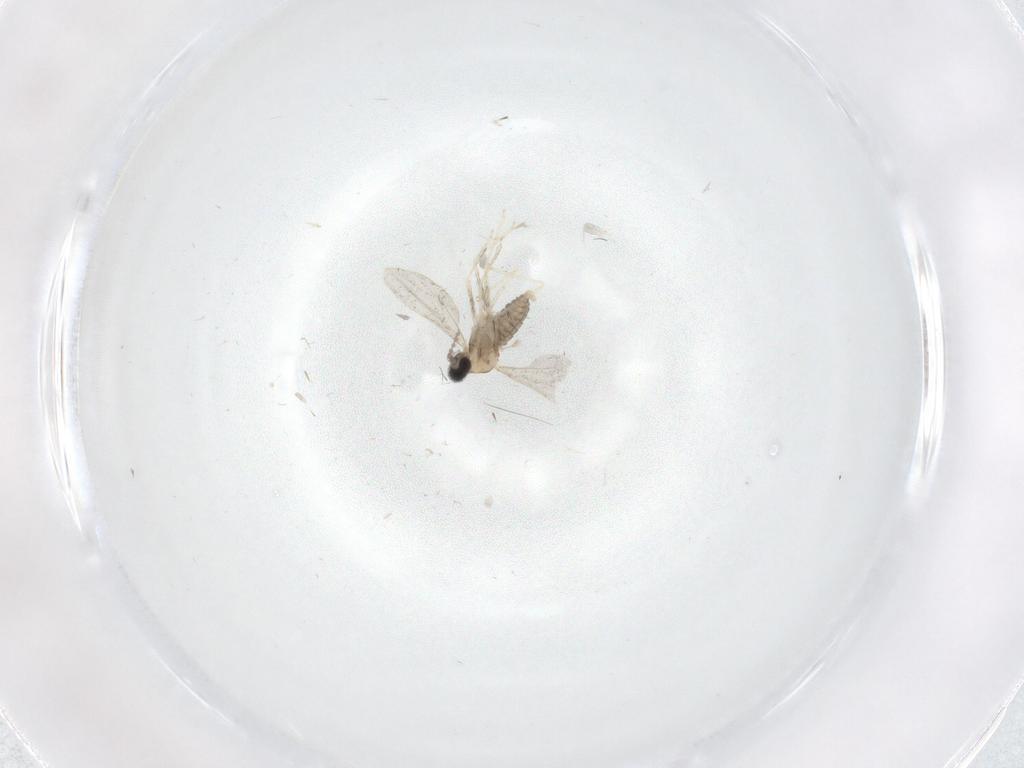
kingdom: Animalia
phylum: Arthropoda
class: Insecta
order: Diptera
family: Cecidomyiidae
